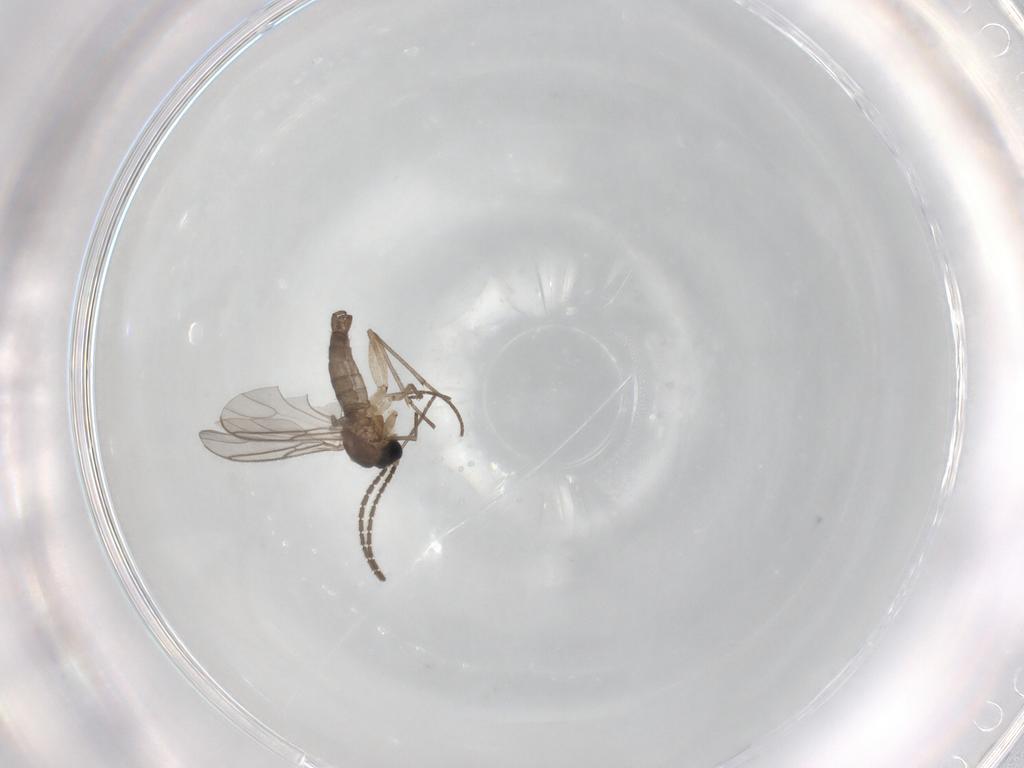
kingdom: Animalia
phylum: Arthropoda
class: Insecta
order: Diptera
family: Sciaridae
